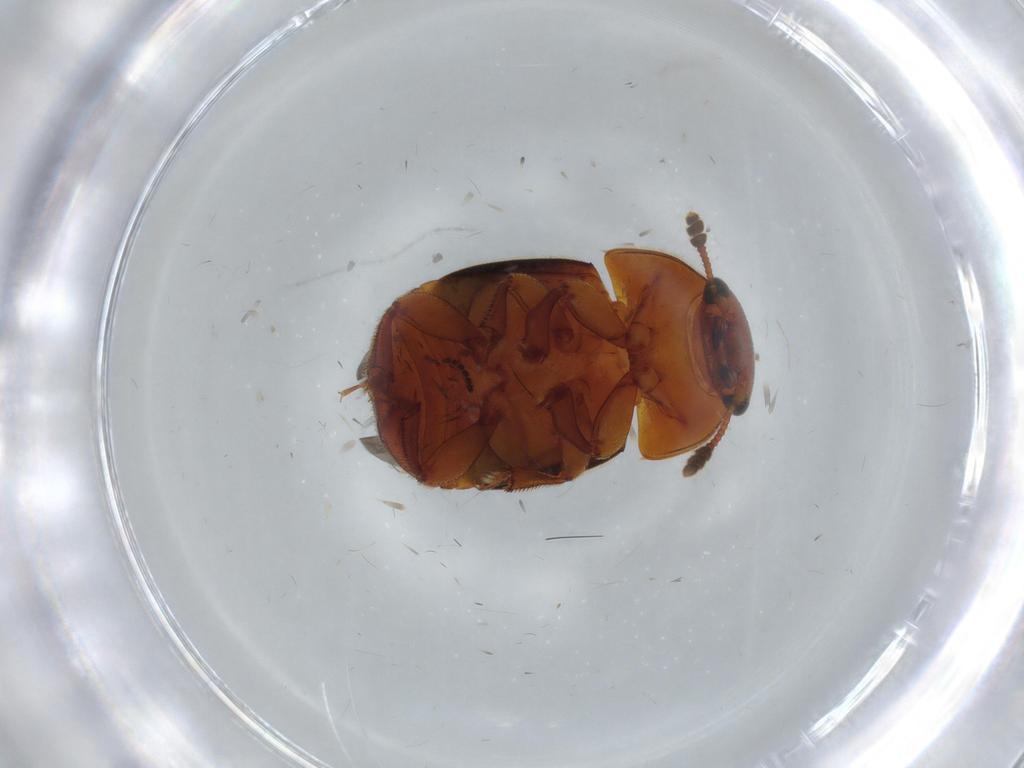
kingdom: Animalia
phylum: Arthropoda
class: Insecta
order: Coleoptera
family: Nitidulidae
